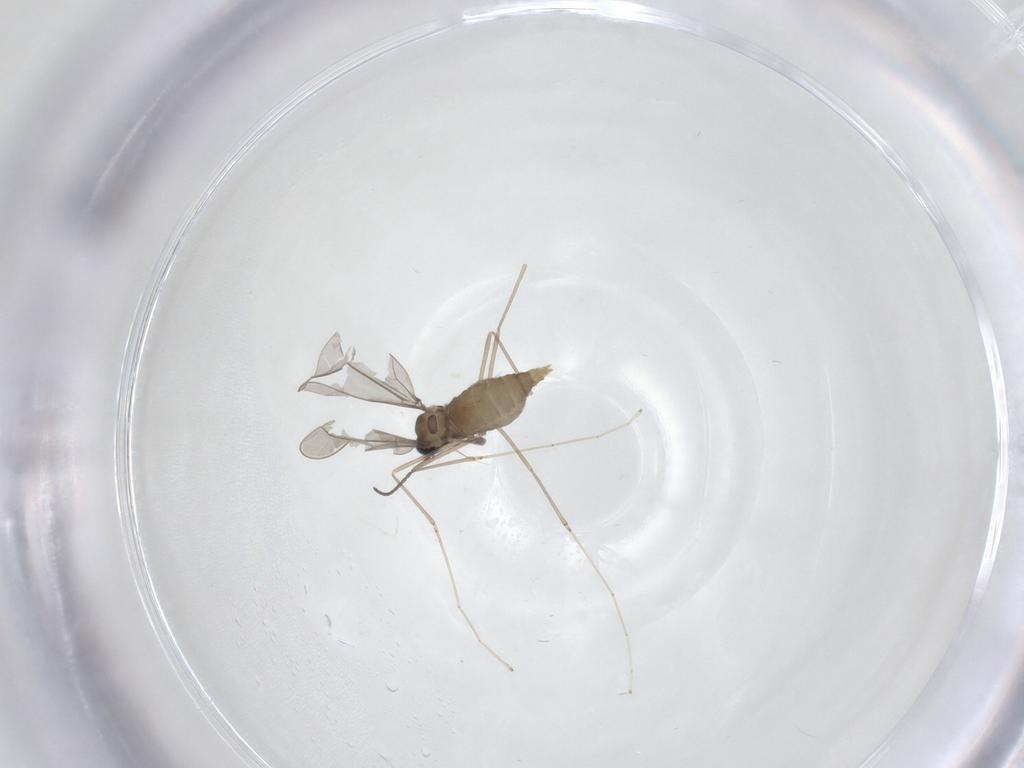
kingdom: Animalia
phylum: Arthropoda
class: Insecta
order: Diptera
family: Cecidomyiidae
